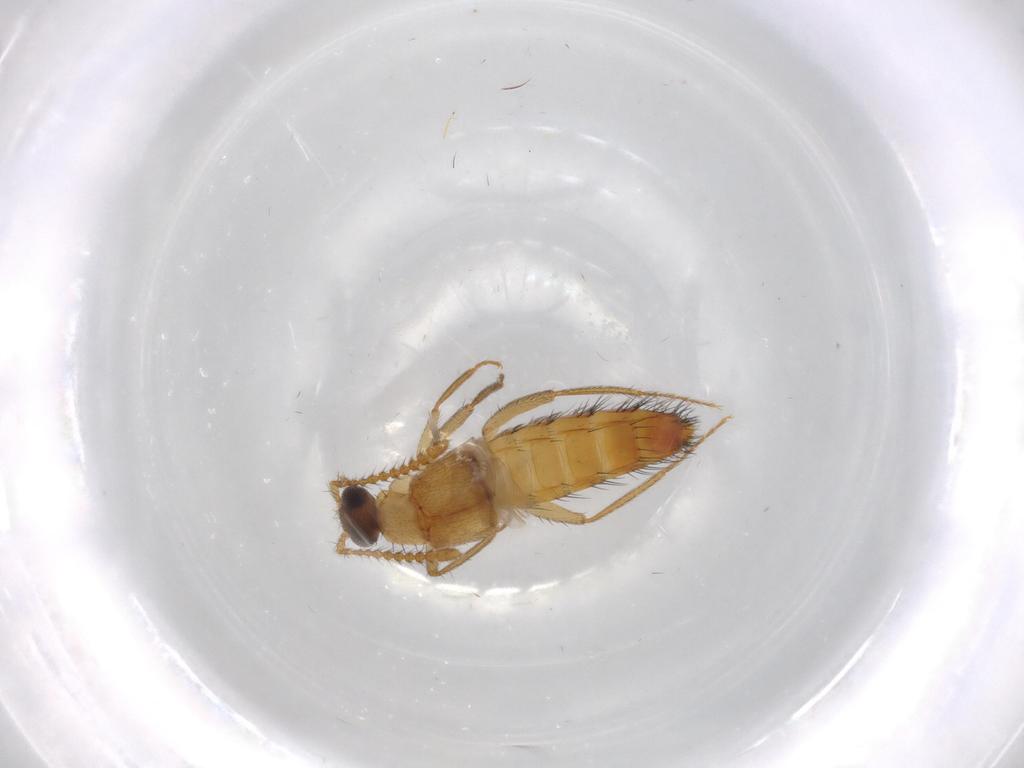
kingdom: Animalia
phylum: Arthropoda
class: Insecta
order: Coleoptera
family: Staphylinidae
